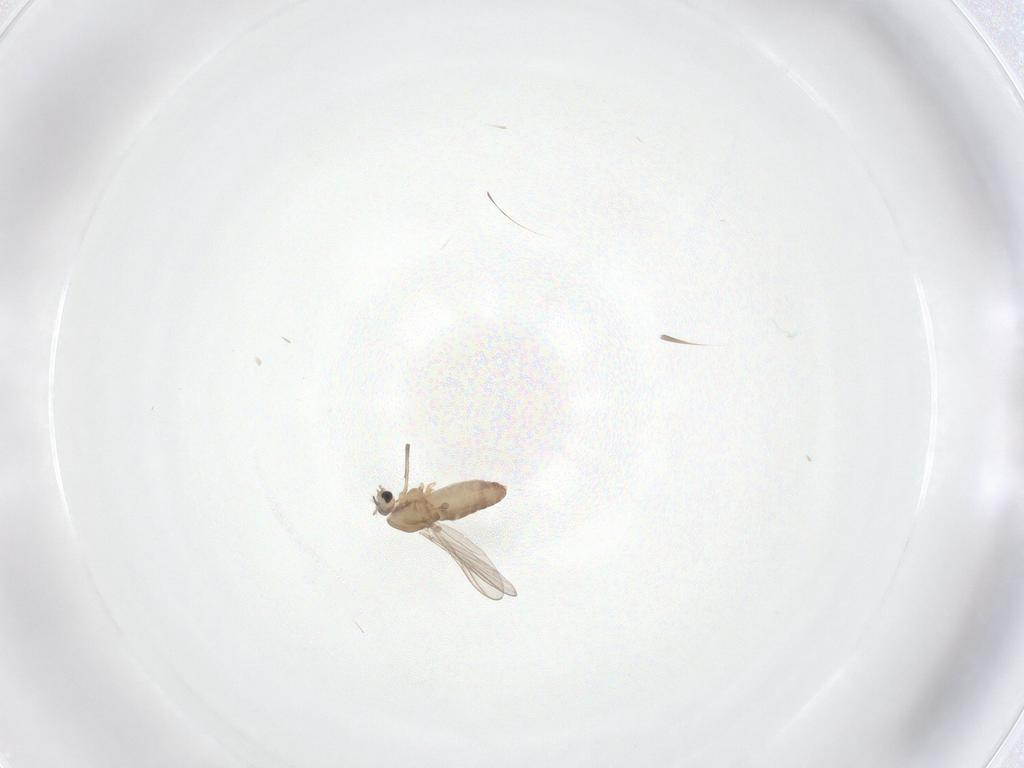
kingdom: Animalia
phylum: Arthropoda
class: Insecta
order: Diptera
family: Chironomidae
